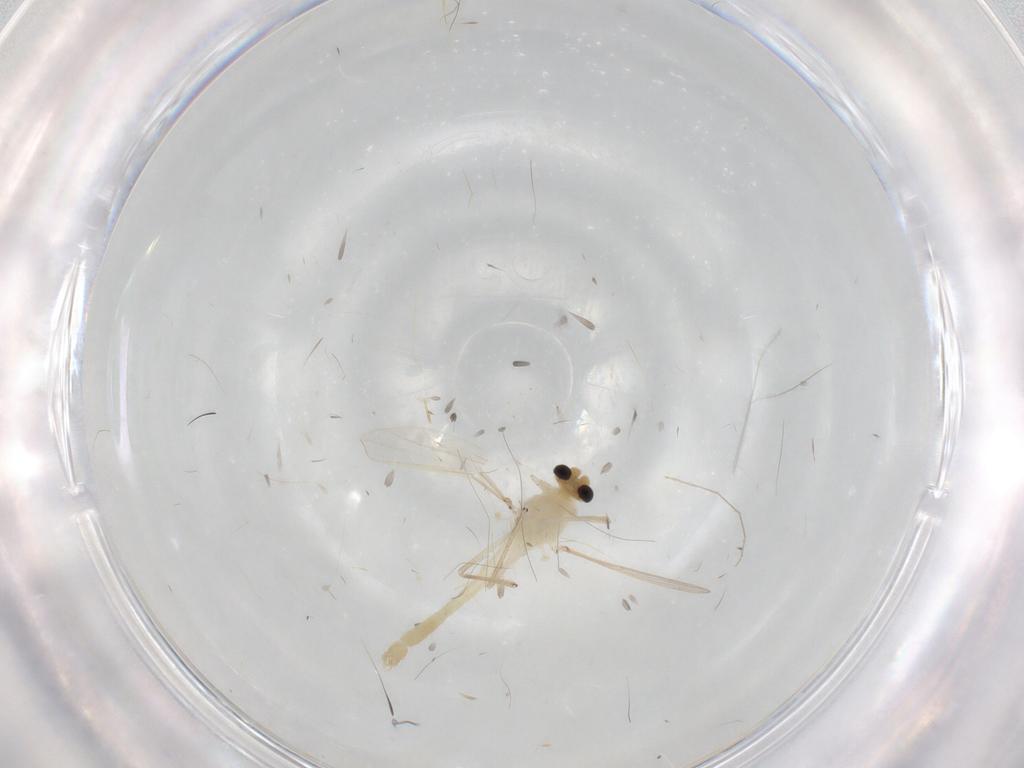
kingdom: Animalia
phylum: Arthropoda
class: Insecta
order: Diptera
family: Chironomidae
